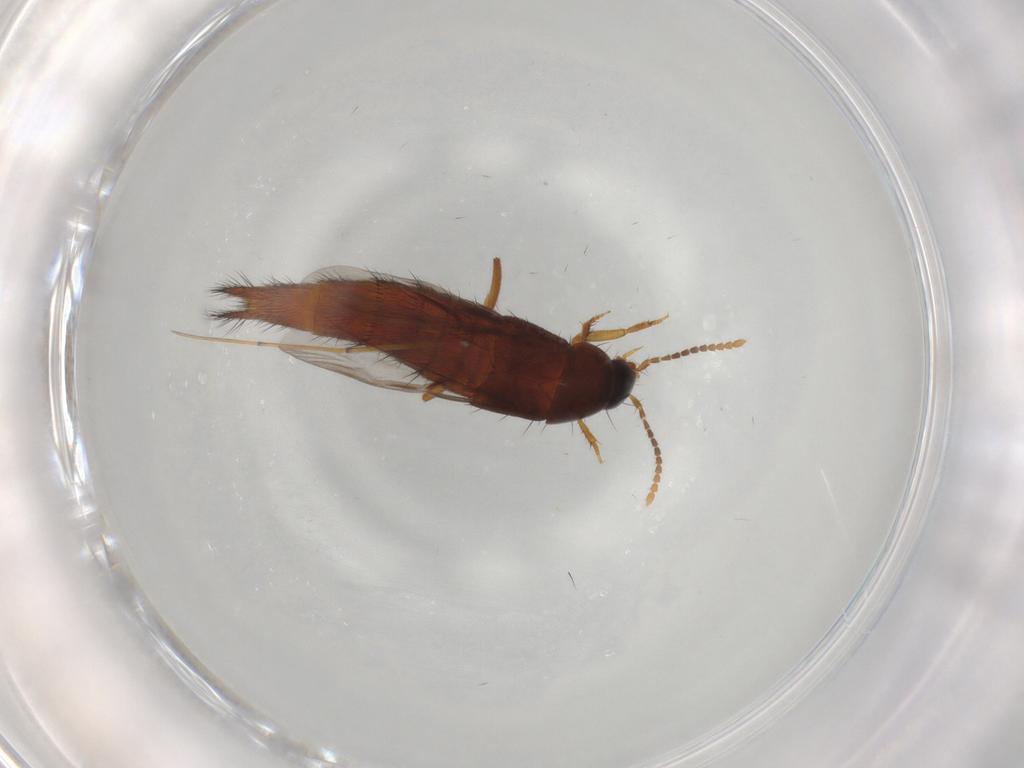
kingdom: Animalia
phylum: Arthropoda
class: Insecta
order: Coleoptera
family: Staphylinidae
